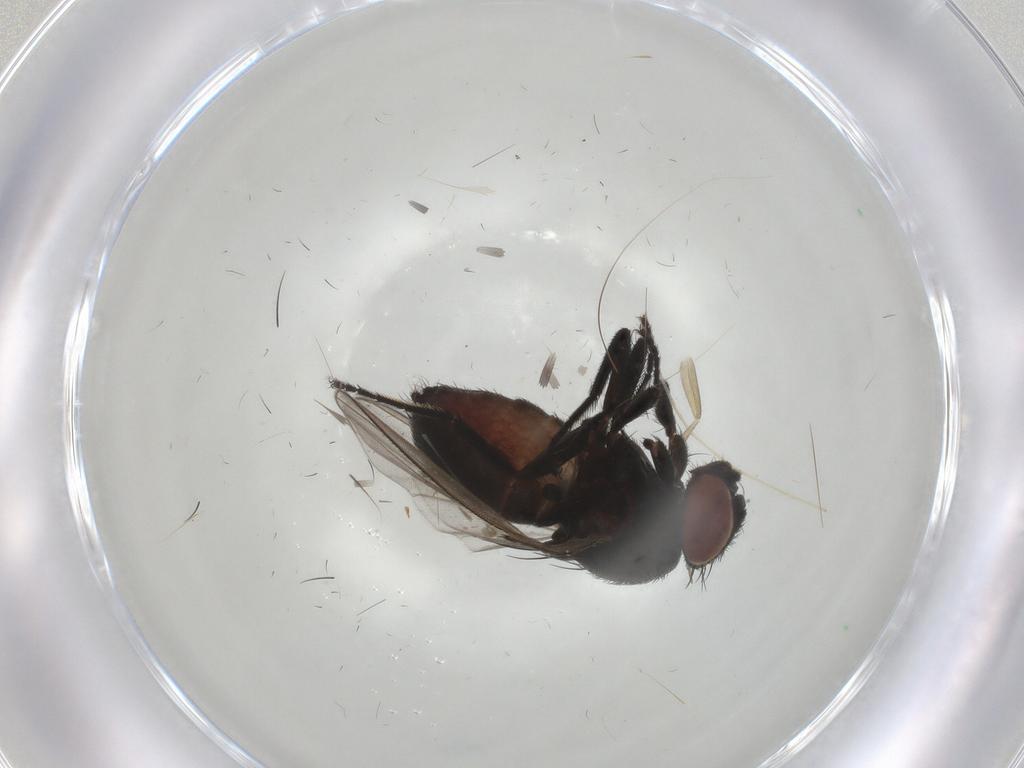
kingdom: Animalia
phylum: Arthropoda
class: Insecta
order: Diptera
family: Milichiidae
